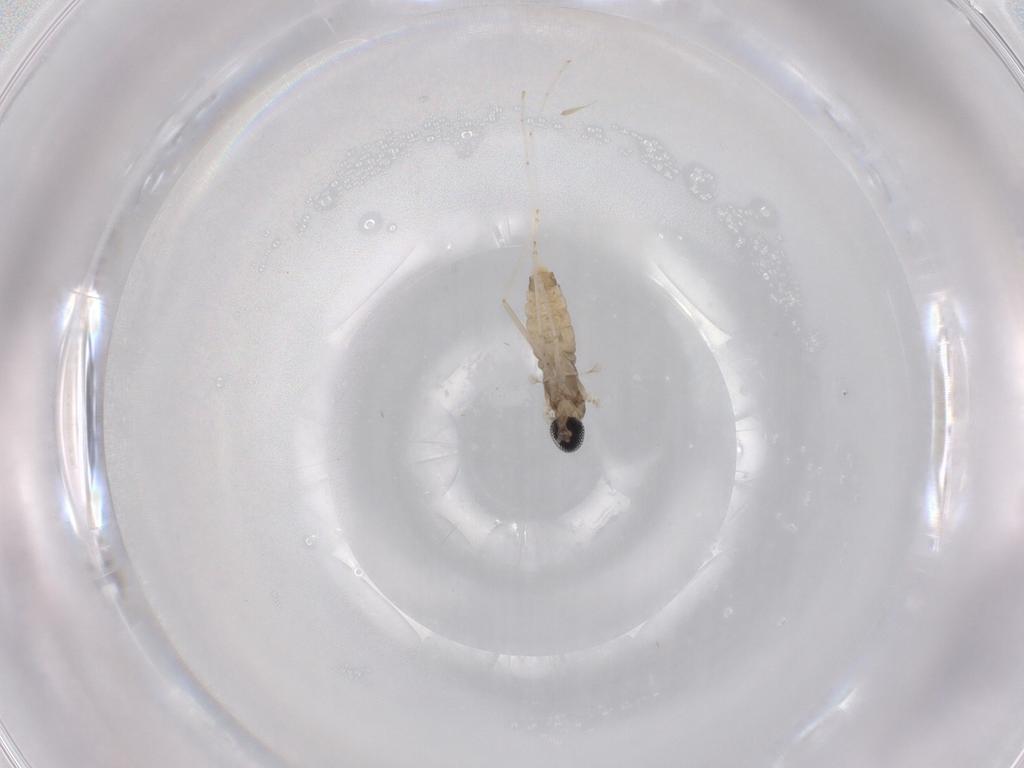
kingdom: Animalia
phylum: Arthropoda
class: Insecta
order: Diptera
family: Cecidomyiidae
